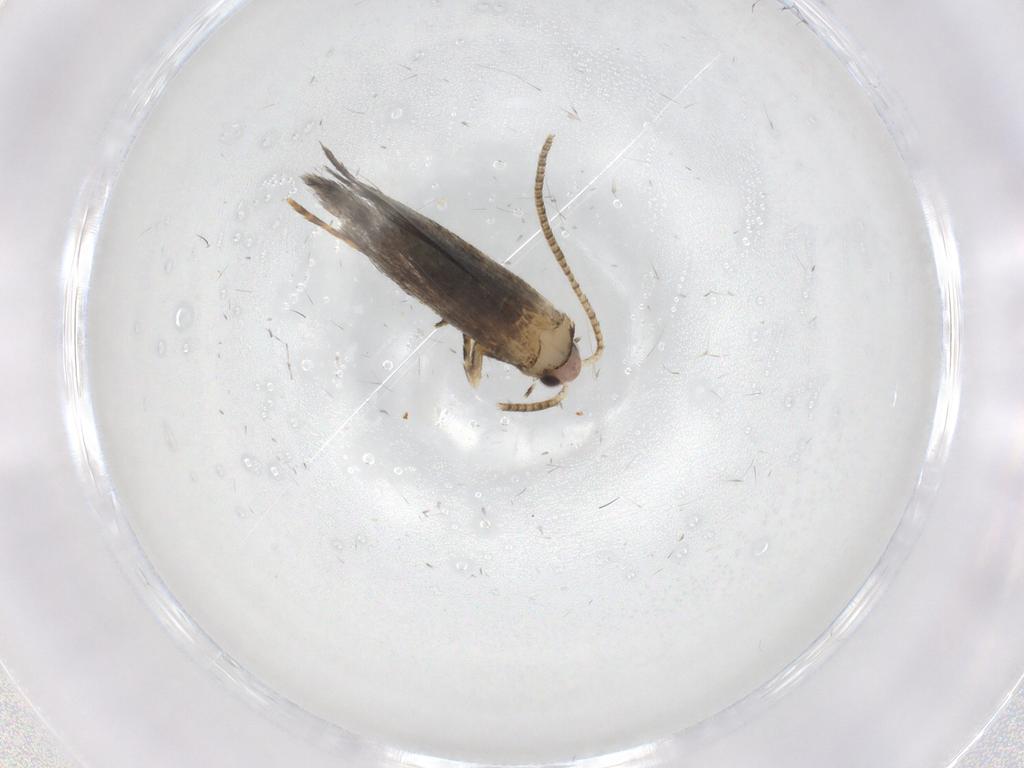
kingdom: Animalia
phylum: Arthropoda
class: Insecta
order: Lepidoptera
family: Tineidae
